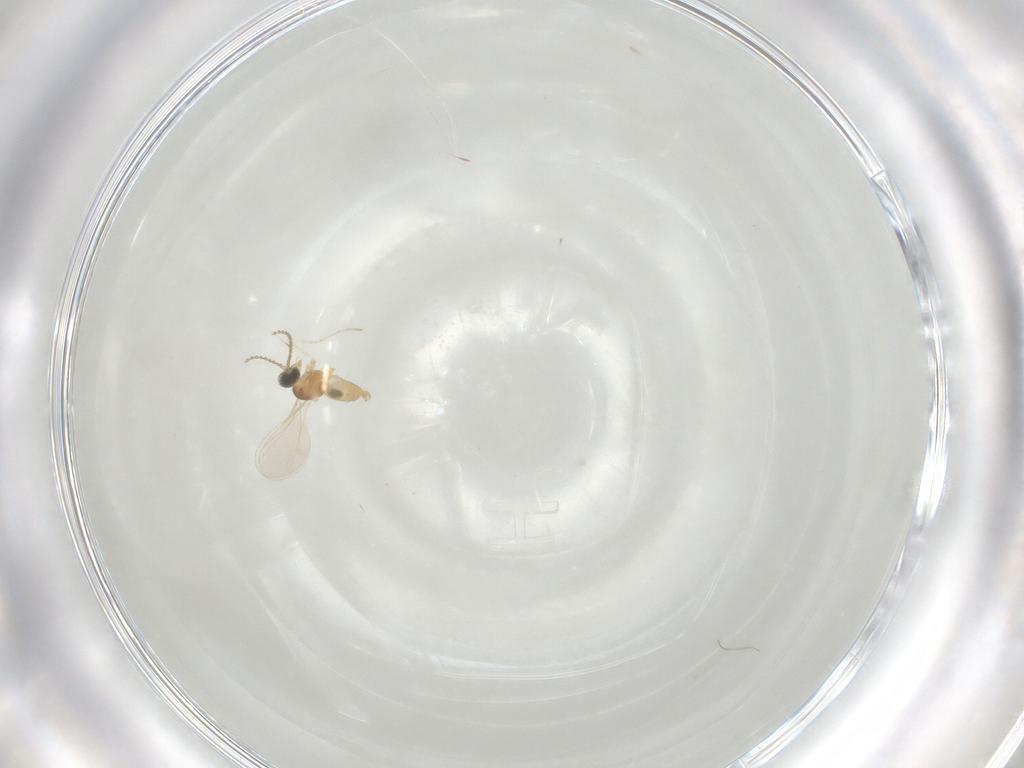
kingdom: Animalia
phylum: Arthropoda
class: Insecta
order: Diptera
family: Cecidomyiidae
